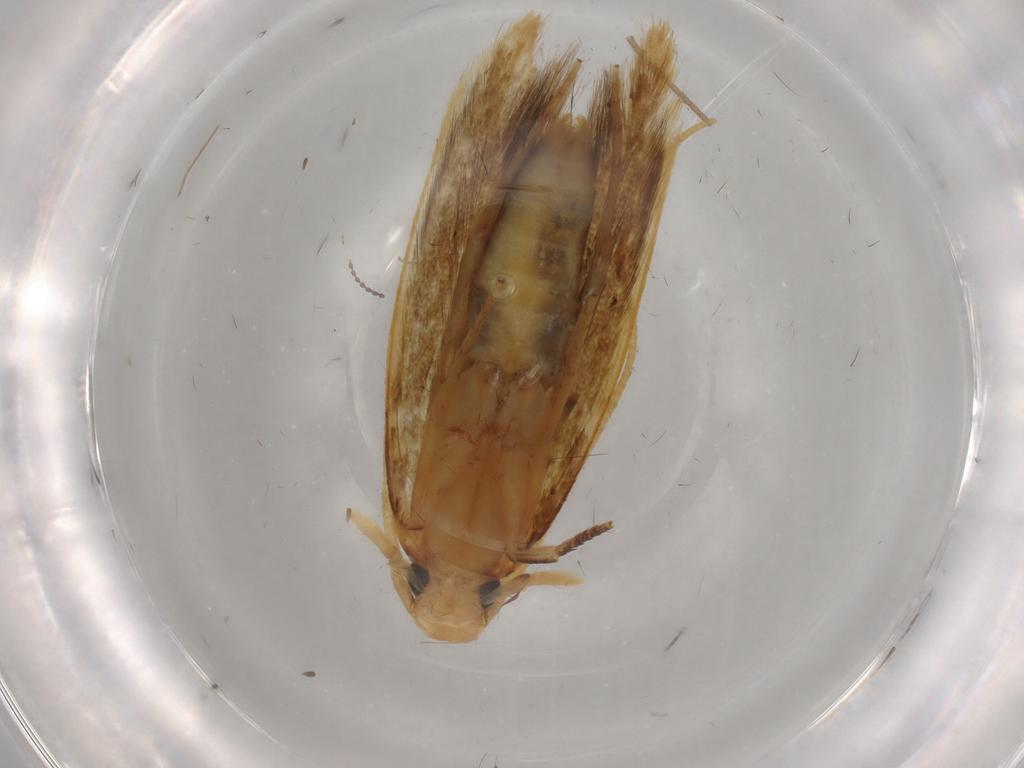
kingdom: Animalia
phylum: Arthropoda
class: Insecta
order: Lepidoptera
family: Tineidae
